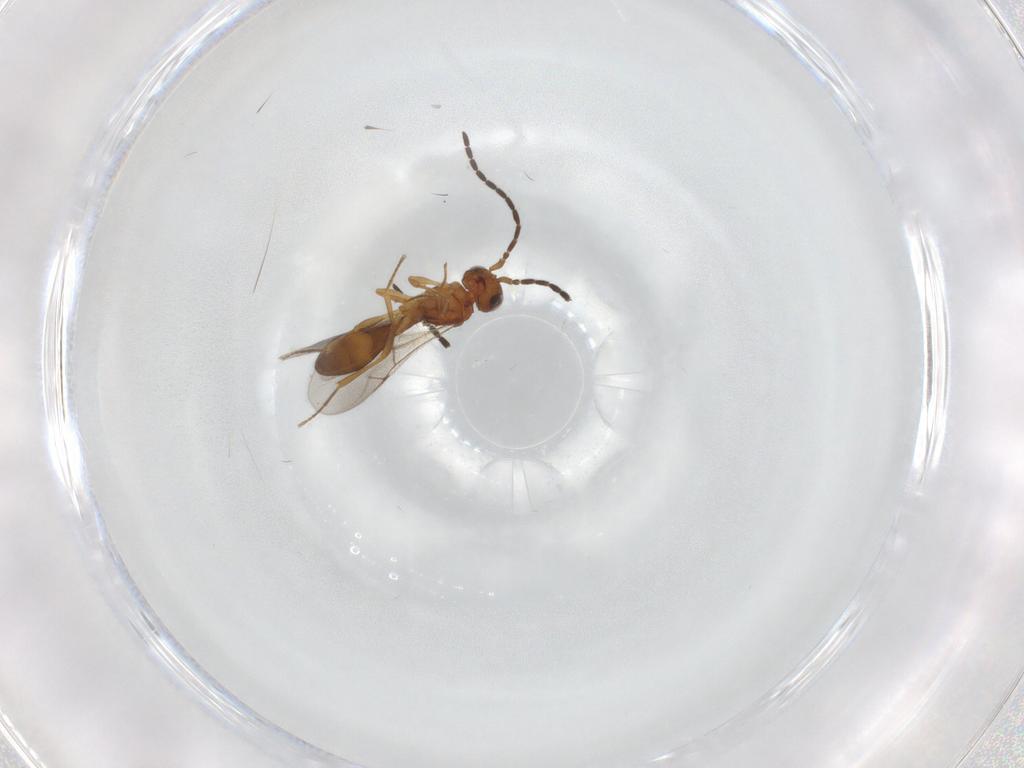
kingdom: Animalia
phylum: Arthropoda
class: Insecta
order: Hymenoptera
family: Scelionidae
